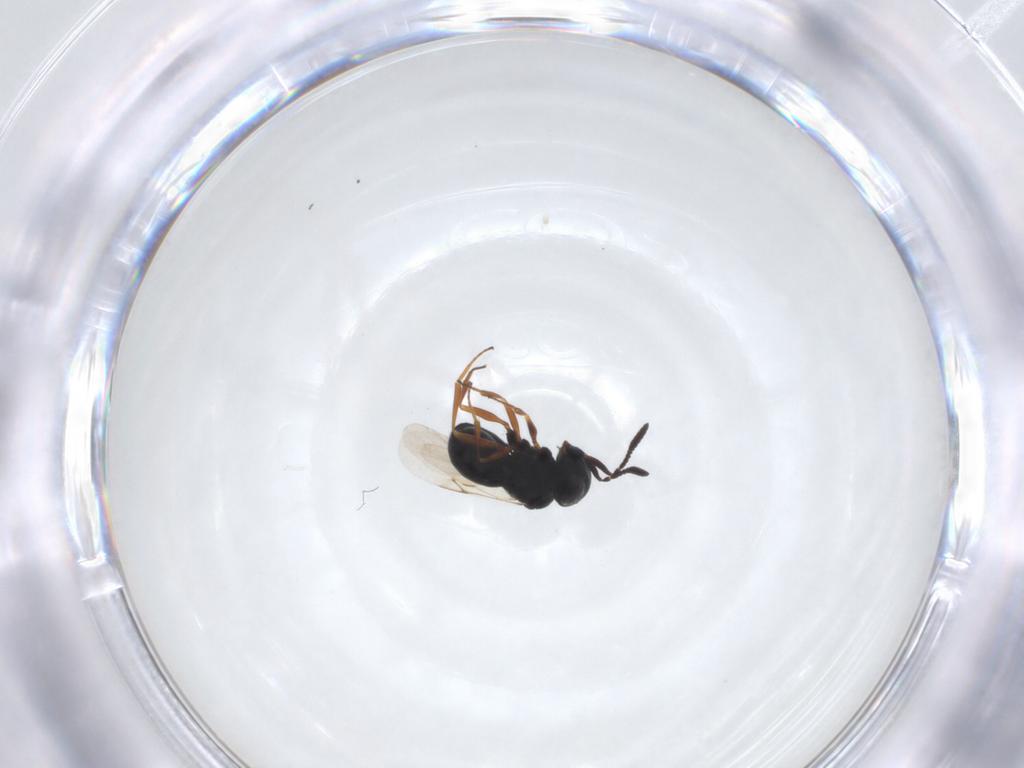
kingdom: Animalia
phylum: Arthropoda
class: Insecta
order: Hymenoptera
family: Scelionidae
